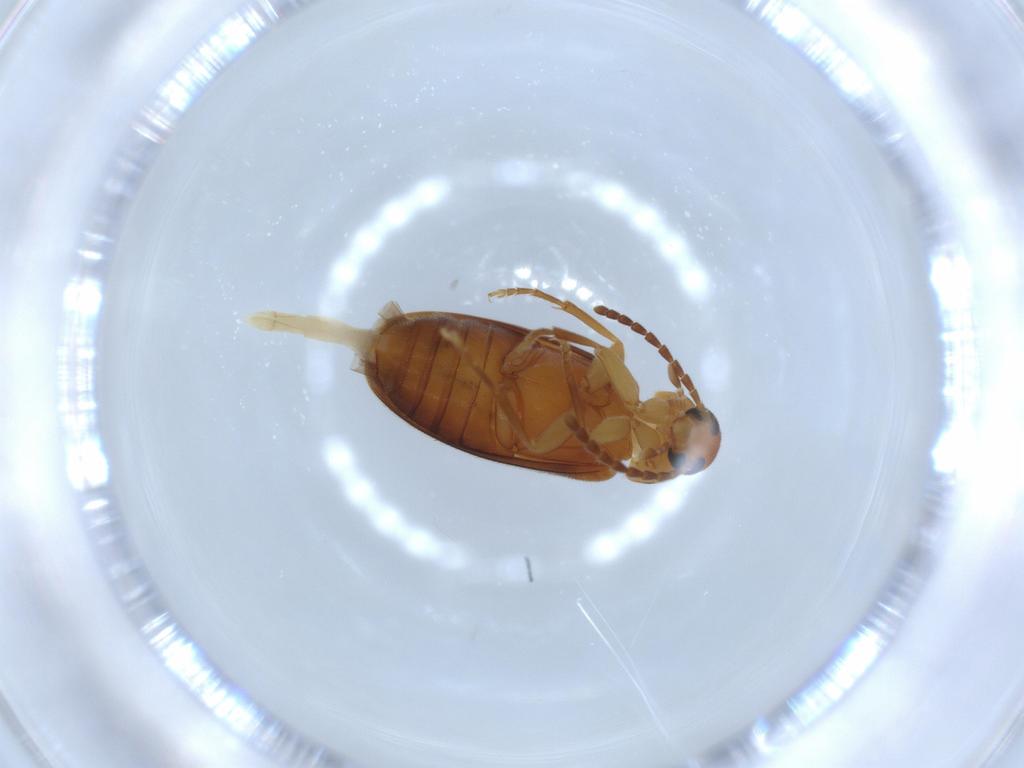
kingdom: Animalia
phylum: Arthropoda
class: Insecta
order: Coleoptera
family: Scraptiidae
